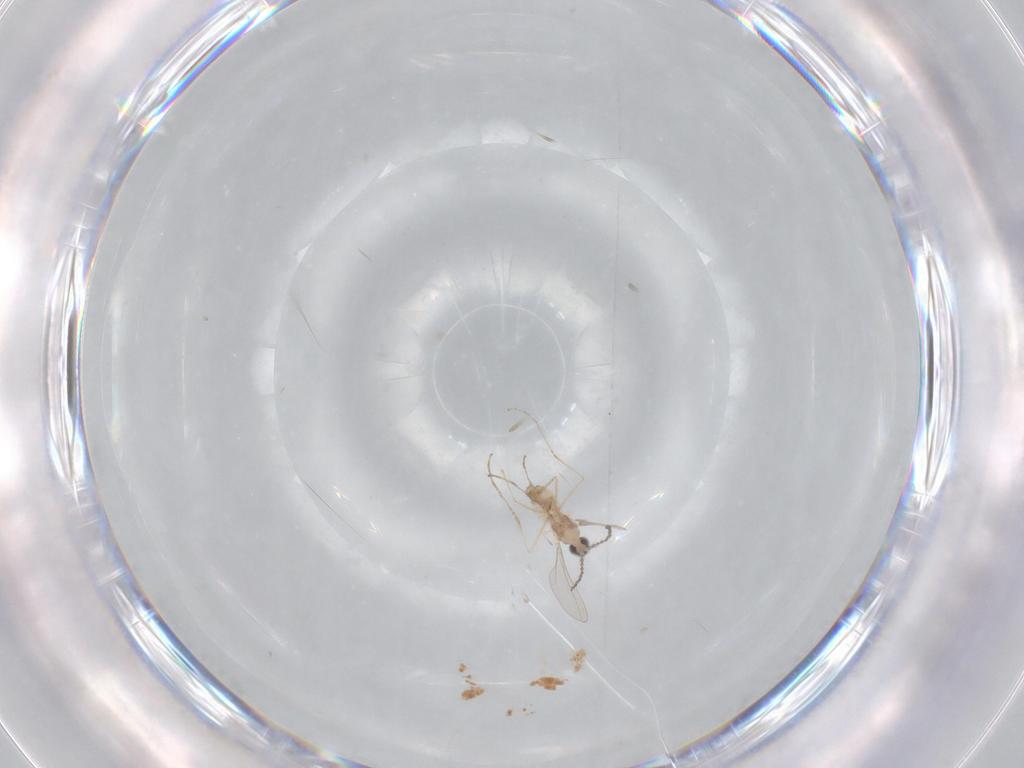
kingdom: Animalia
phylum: Arthropoda
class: Insecta
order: Diptera
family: Cecidomyiidae
